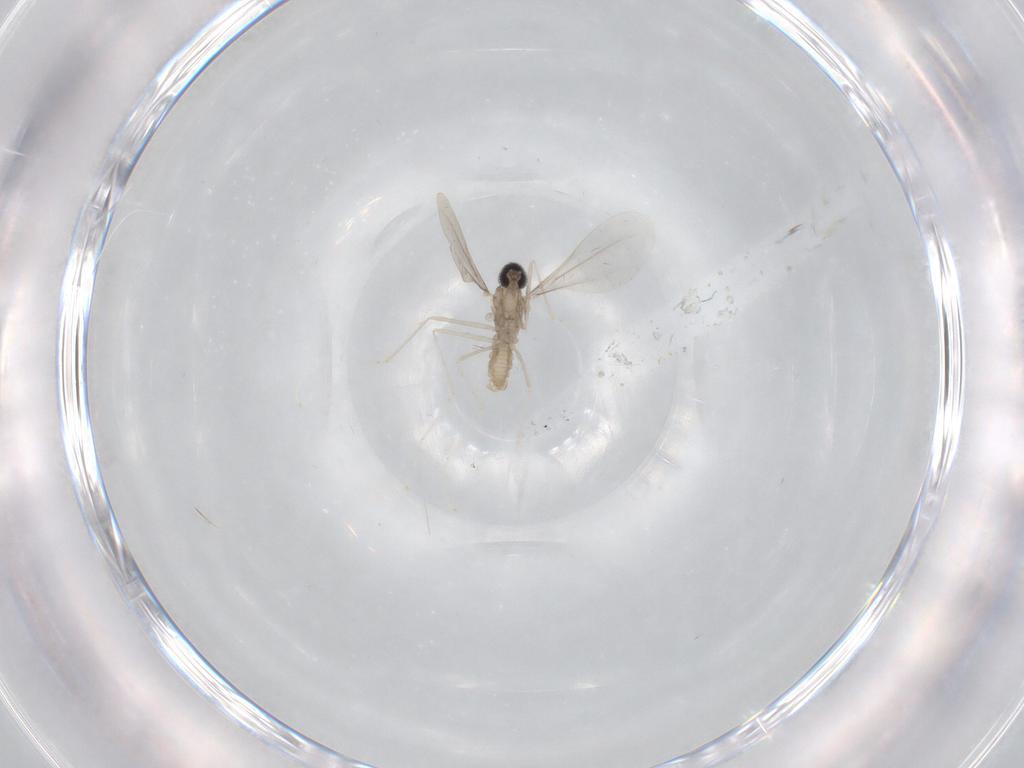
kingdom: Animalia
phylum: Arthropoda
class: Insecta
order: Diptera
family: Cecidomyiidae
